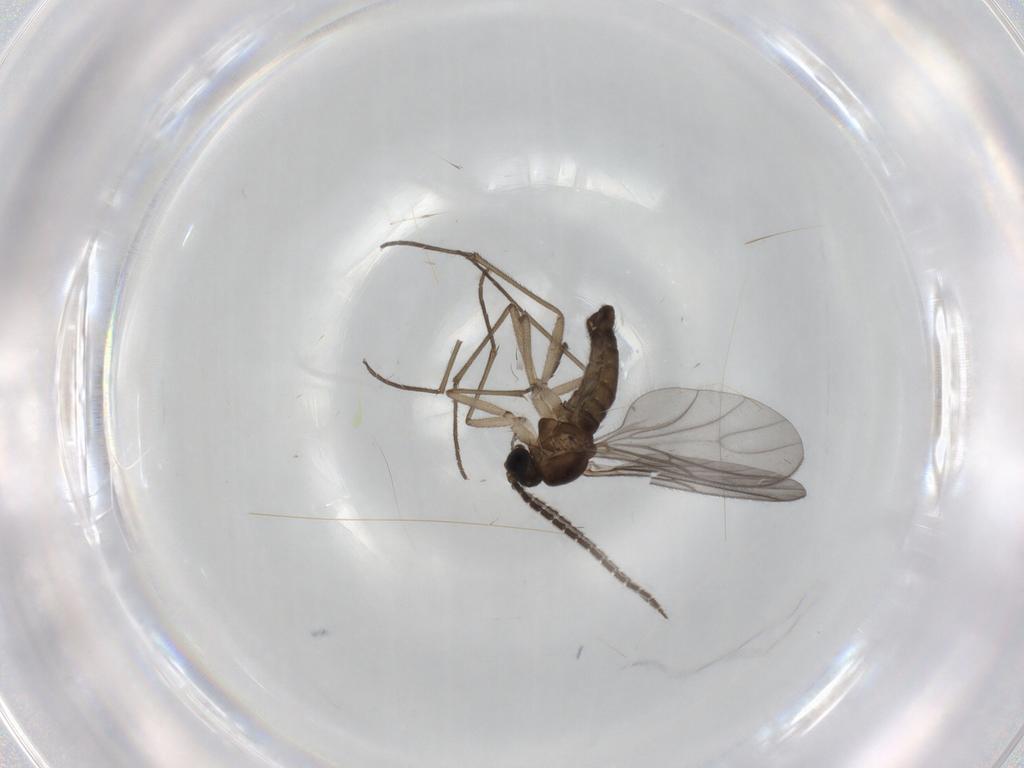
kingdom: Animalia
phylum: Arthropoda
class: Insecta
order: Diptera
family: Sciaridae
